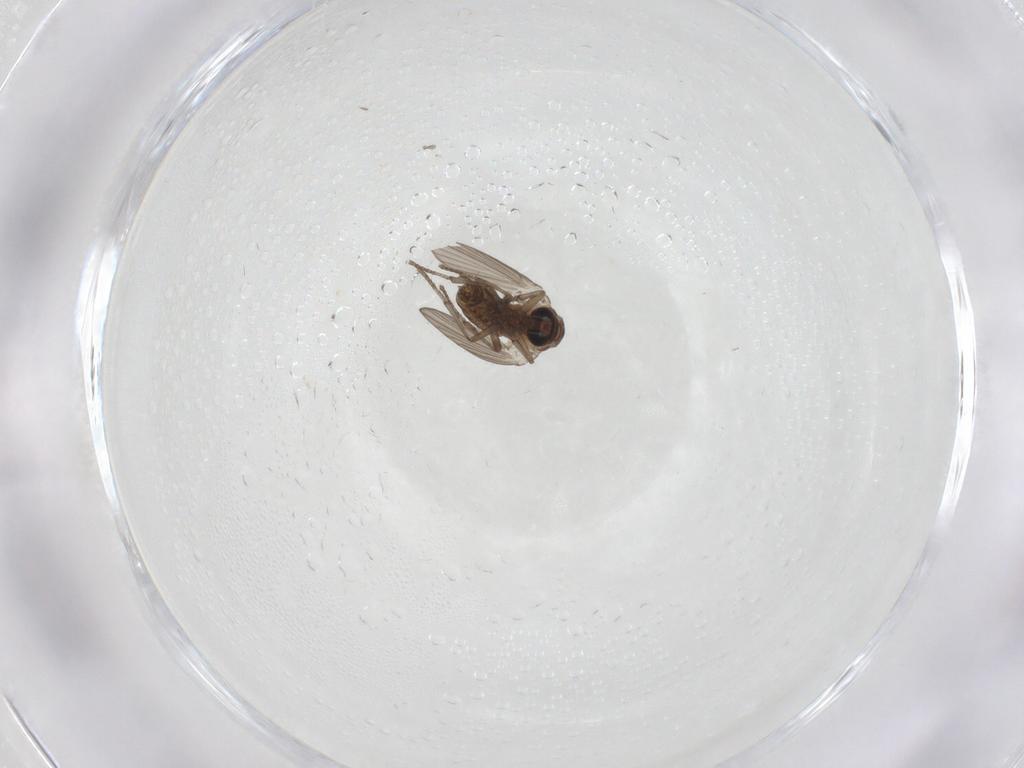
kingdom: Animalia
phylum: Arthropoda
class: Insecta
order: Diptera
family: Psychodidae
